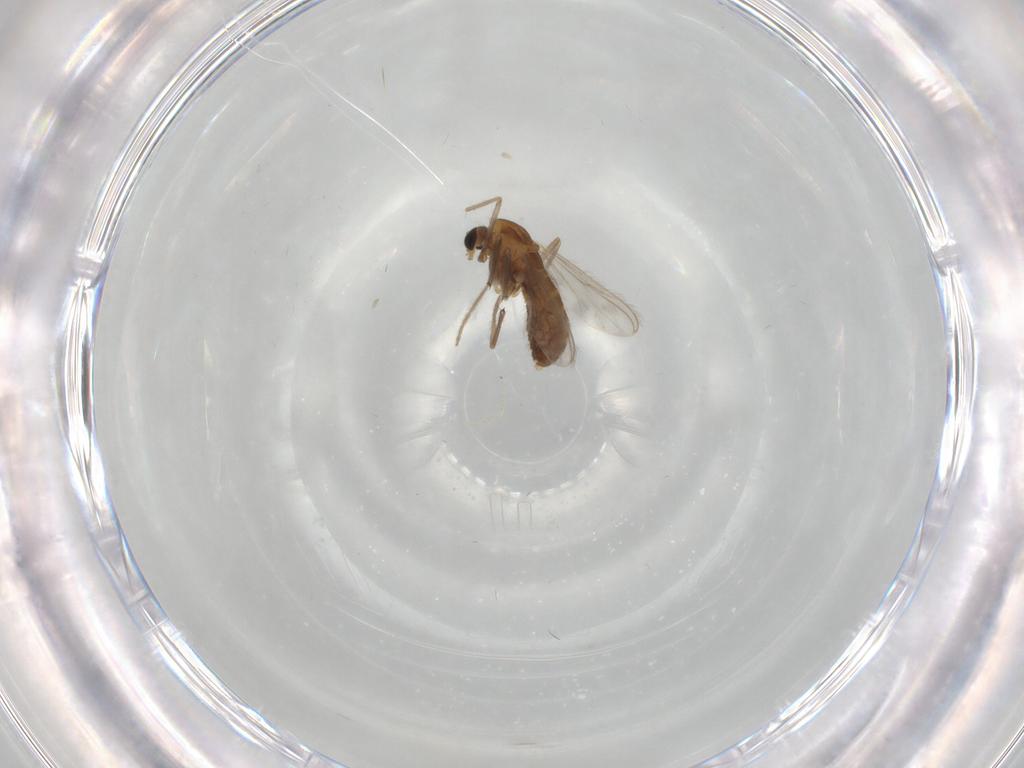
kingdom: Animalia
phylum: Arthropoda
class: Insecta
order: Diptera
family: Chironomidae
